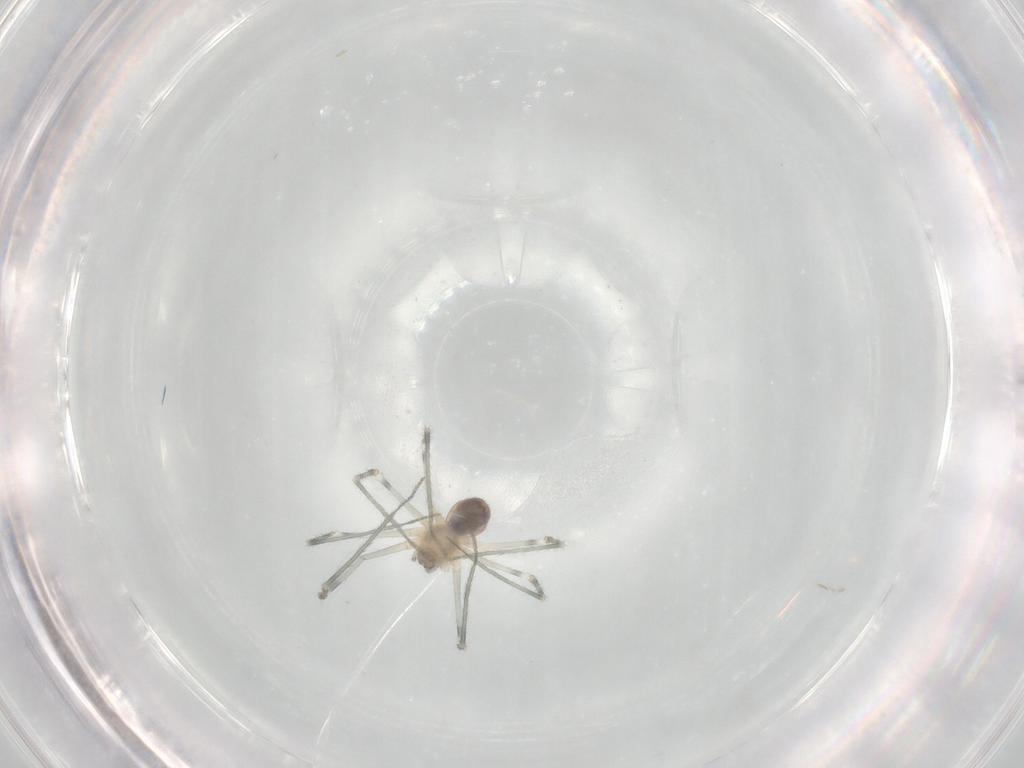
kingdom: Animalia
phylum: Arthropoda
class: Arachnida
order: Araneae
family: Pholcidae
